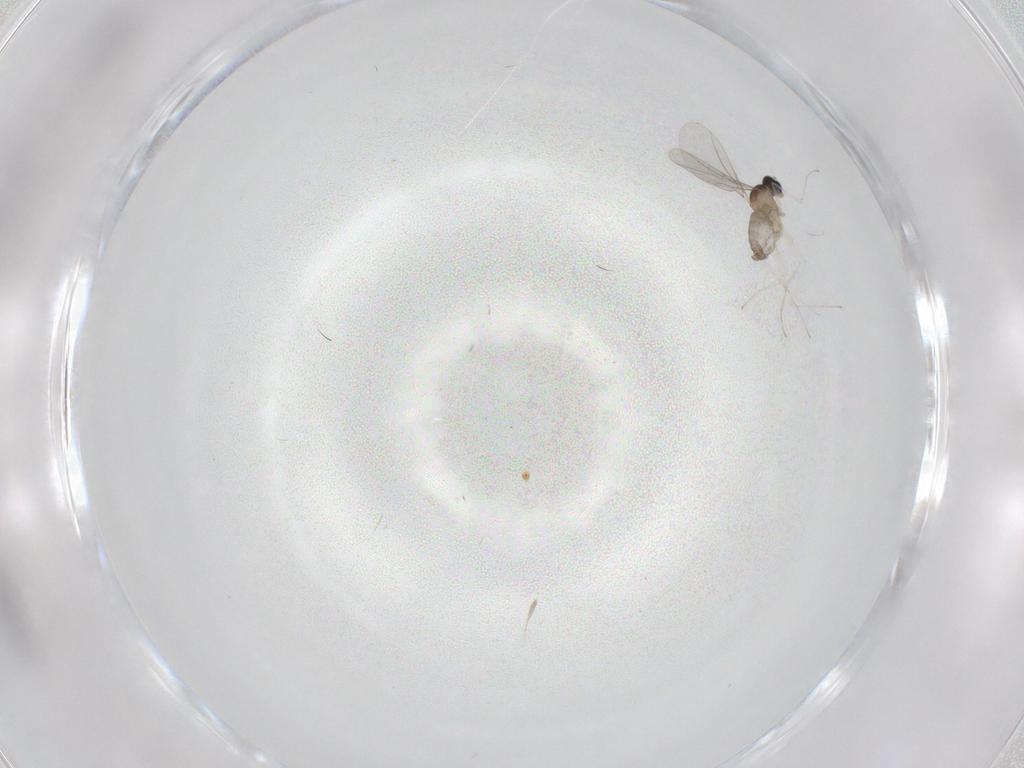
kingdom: Animalia
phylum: Arthropoda
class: Insecta
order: Diptera
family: Cecidomyiidae
